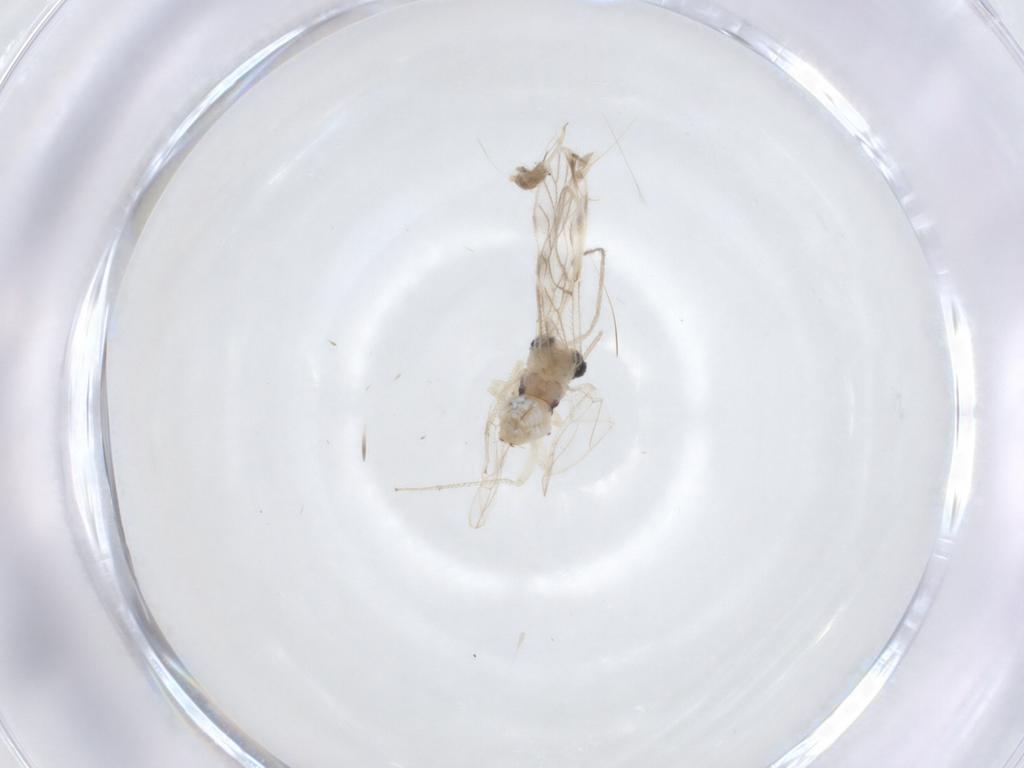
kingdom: Animalia
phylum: Arthropoda
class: Insecta
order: Psocodea
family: Caeciliusidae
